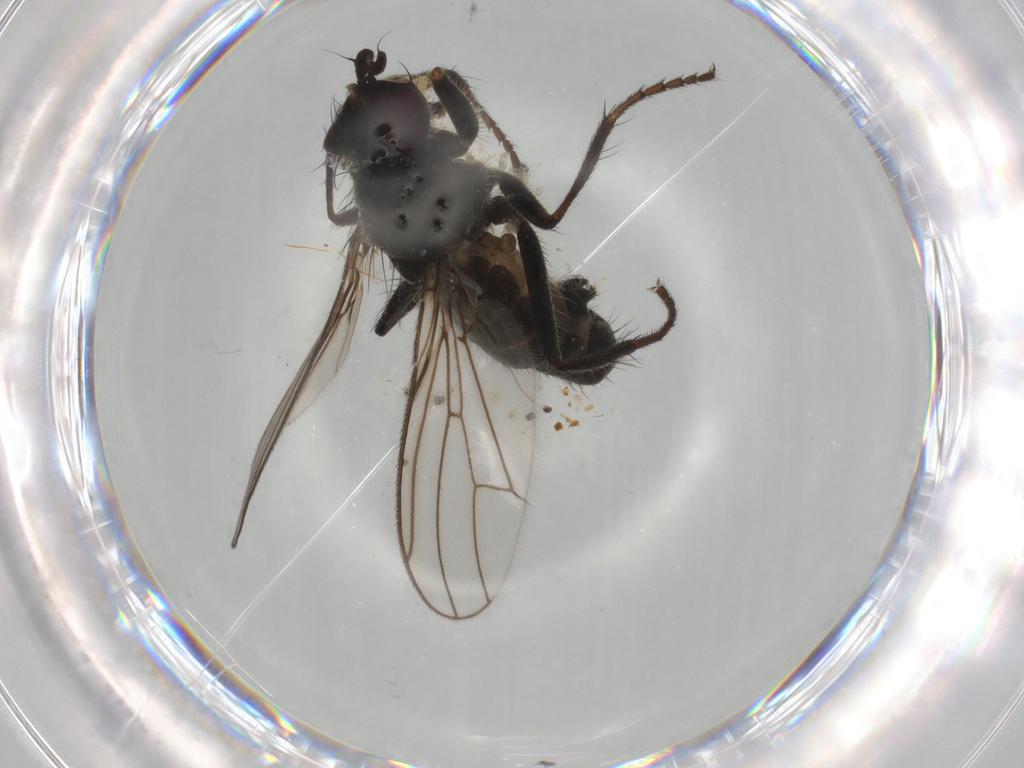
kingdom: Animalia
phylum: Arthropoda
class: Insecta
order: Diptera
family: Scathophagidae
